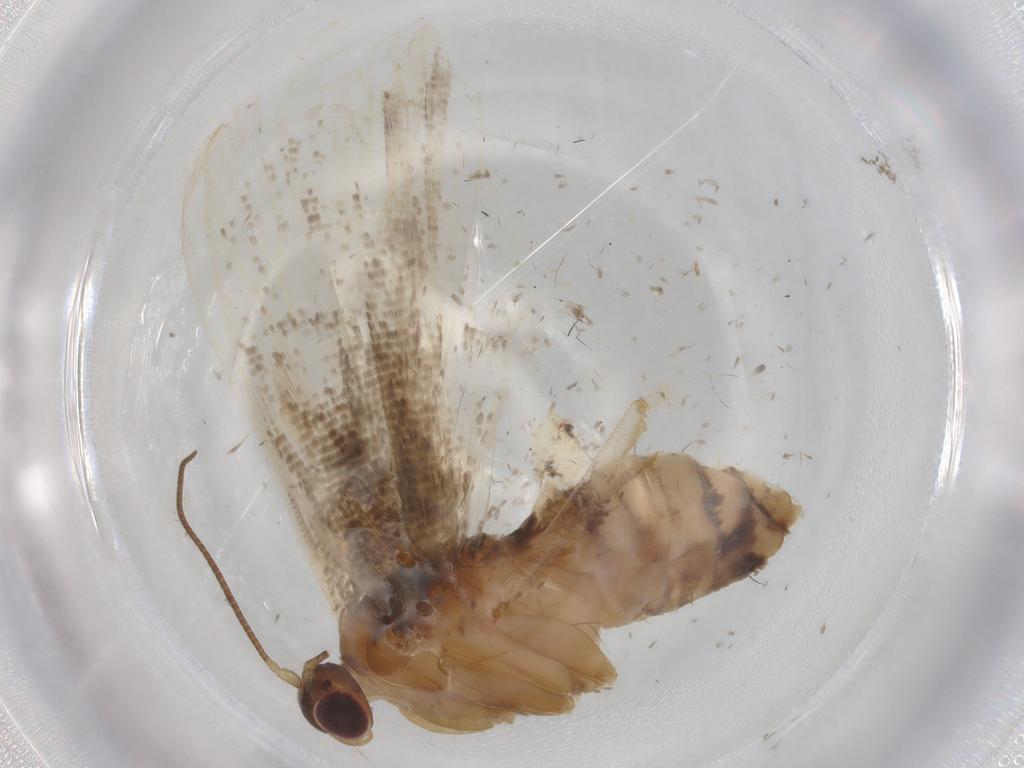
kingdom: Animalia
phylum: Arthropoda
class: Insecta
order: Lepidoptera
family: Tortricidae
